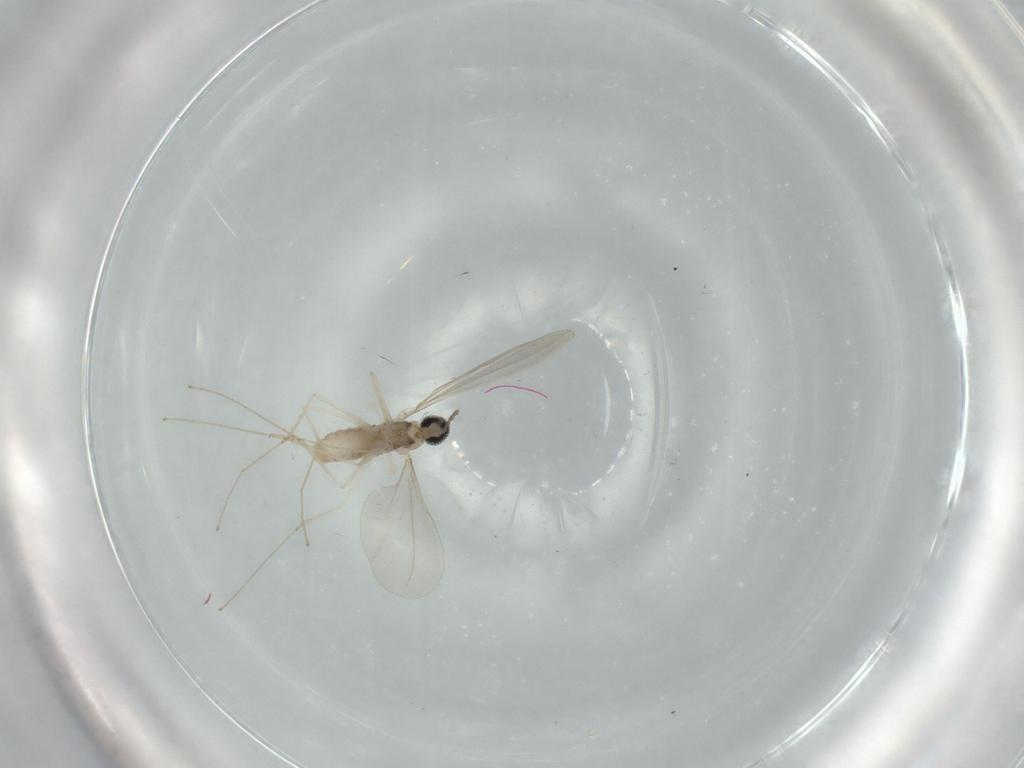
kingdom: Animalia
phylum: Arthropoda
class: Insecta
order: Diptera
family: Cecidomyiidae
